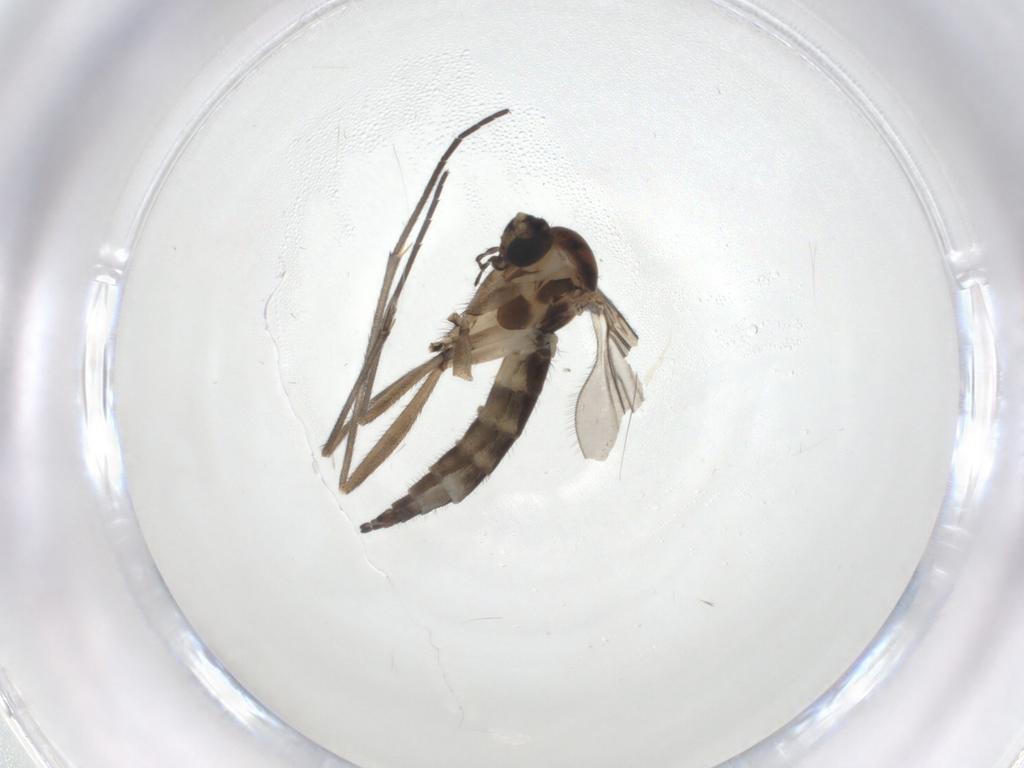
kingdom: Animalia
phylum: Arthropoda
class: Insecta
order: Diptera
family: Sciaridae
